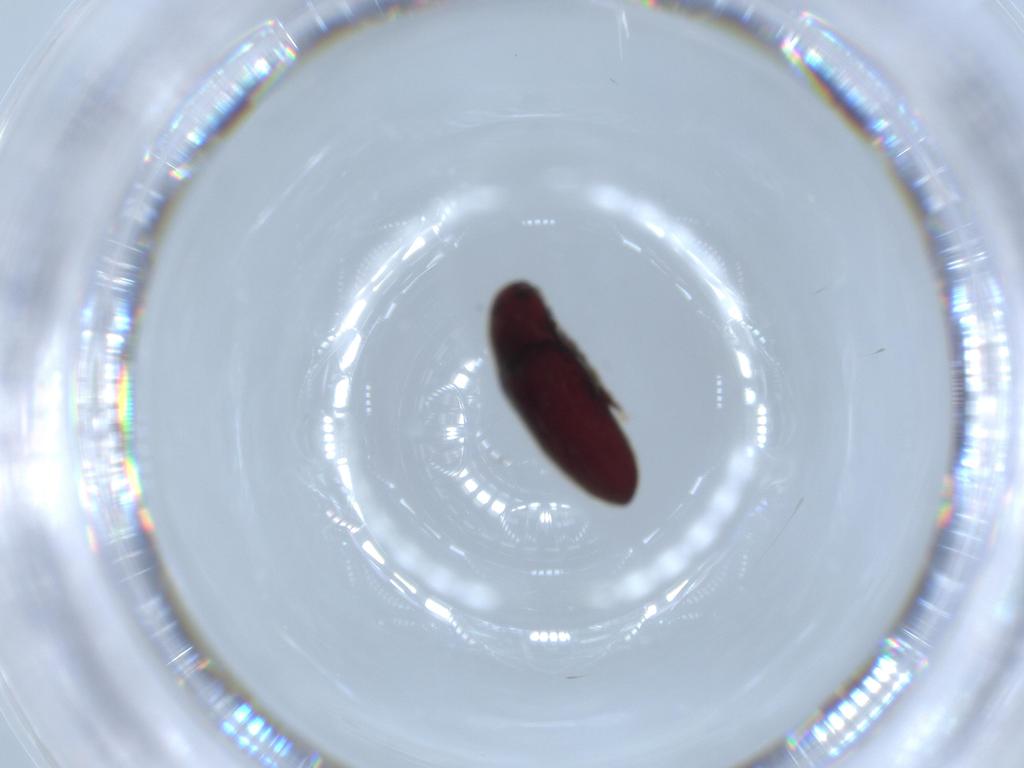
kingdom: Animalia
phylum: Arthropoda
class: Insecta
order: Coleoptera
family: Throscidae
